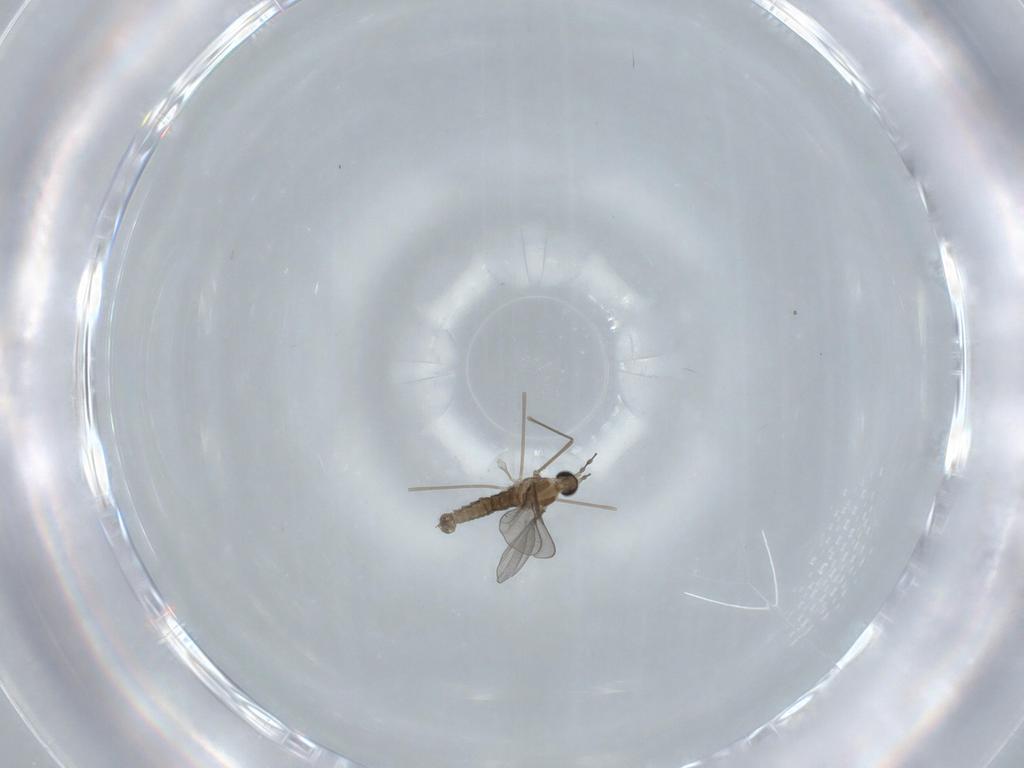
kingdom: Animalia
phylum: Arthropoda
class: Insecta
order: Diptera
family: Cecidomyiidae
